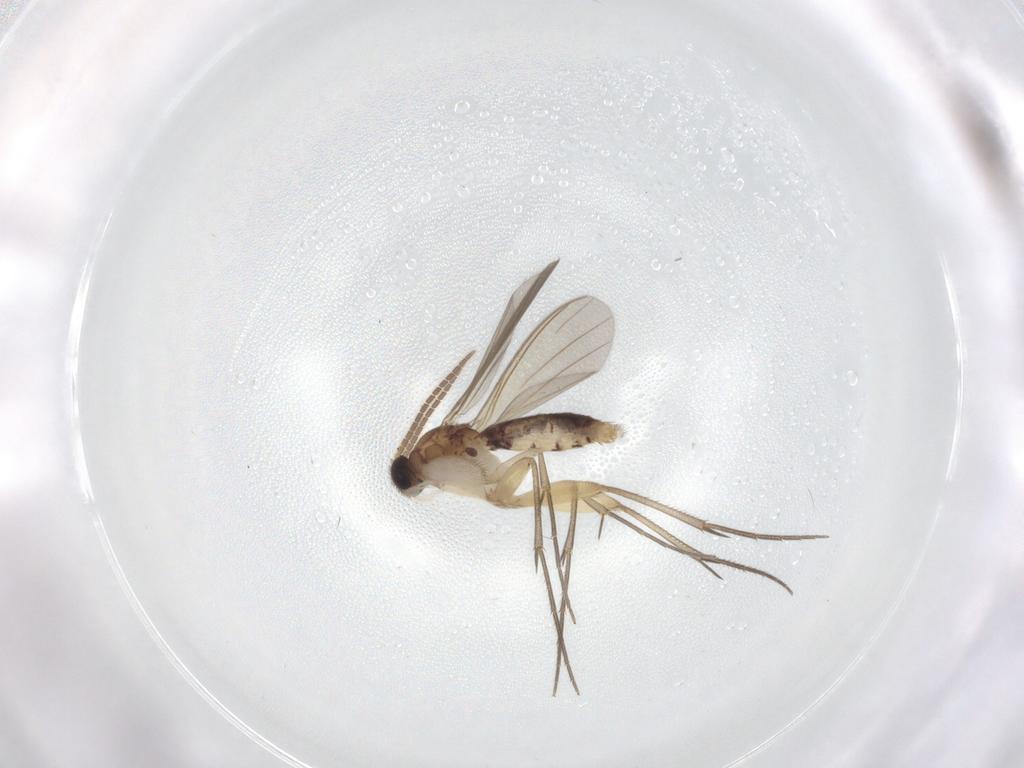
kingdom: Animalia
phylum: Arthropoda
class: Insecta
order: Diptera
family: Mycetophilidae
